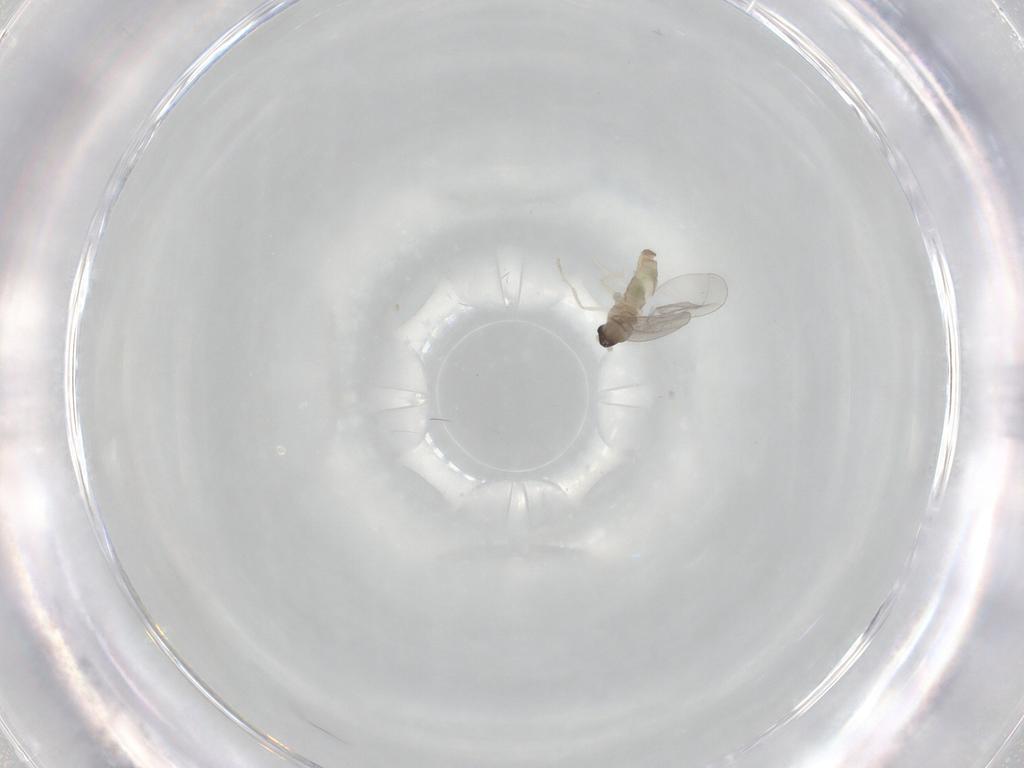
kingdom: Animalia
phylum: Arthropoda
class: Insecta
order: Diptera
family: Cecidomyiidae
